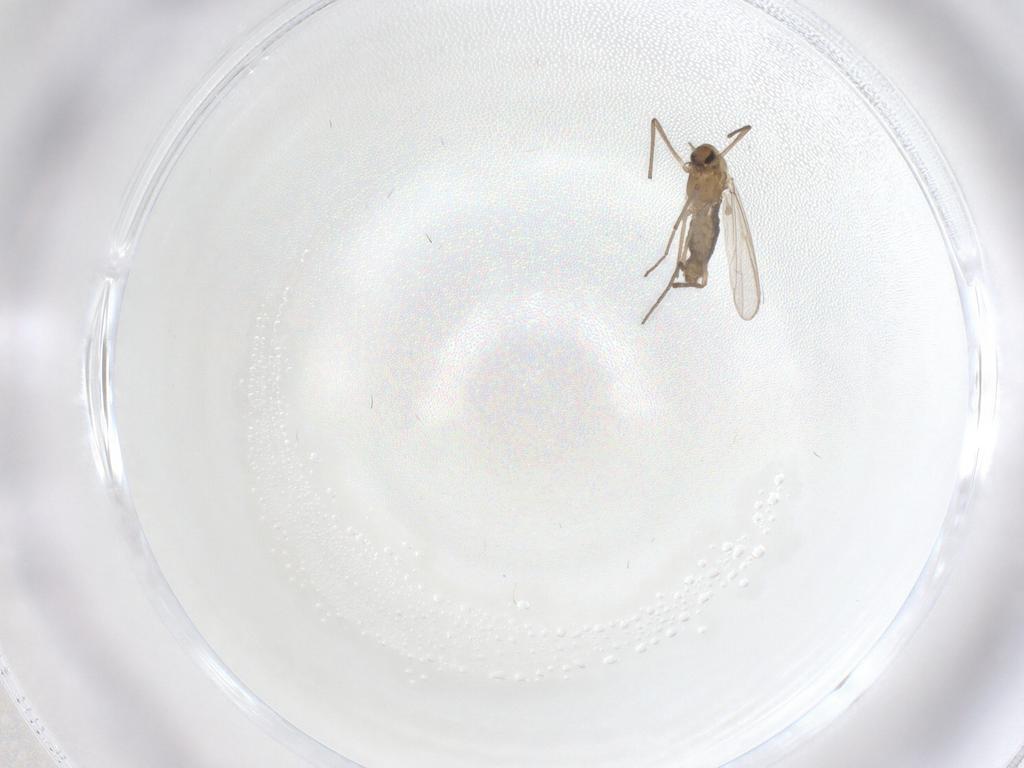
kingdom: Animalia
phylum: Arthropoda
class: Insecta
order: Diptera
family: Chironomidae
